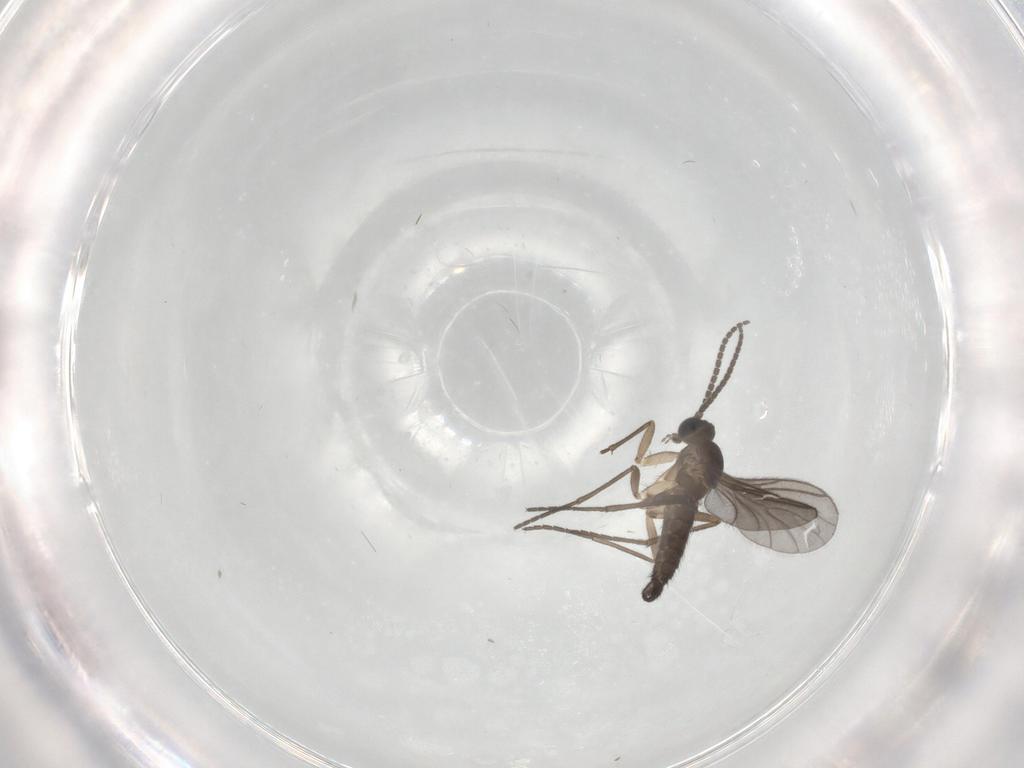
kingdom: Animalia
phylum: Arthropoda
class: Insecta
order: Diptera
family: Sciaridae
